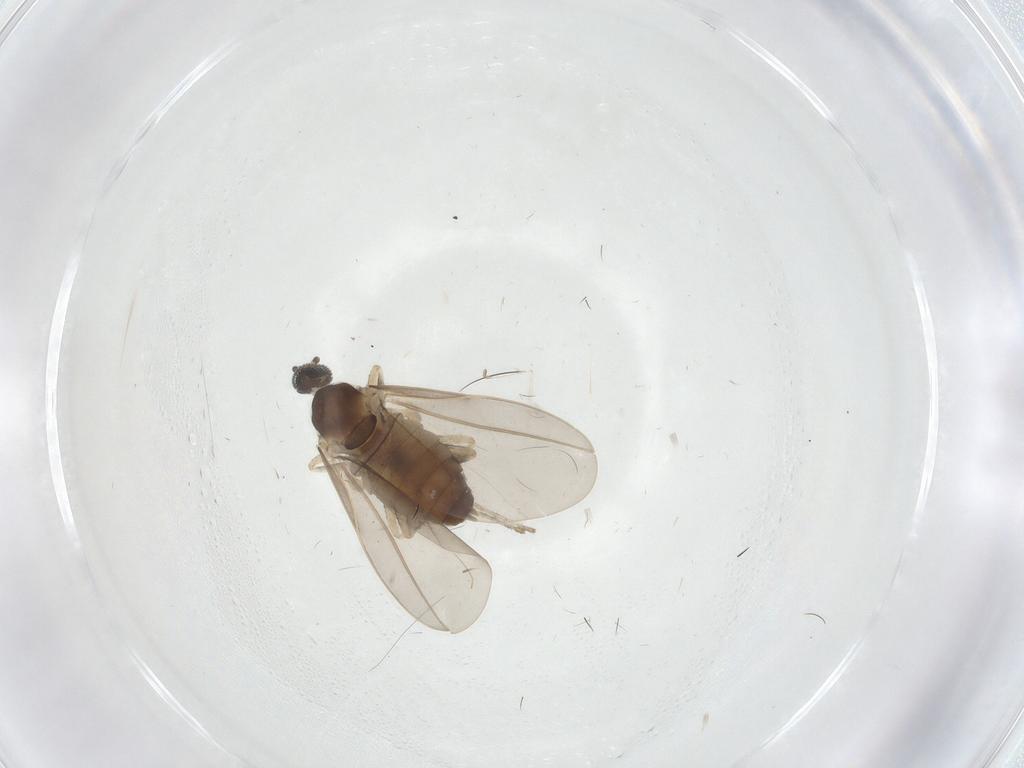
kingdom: Animalia
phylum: Arthropoda
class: Insecta
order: Diptera
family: Cecidomyiidae
